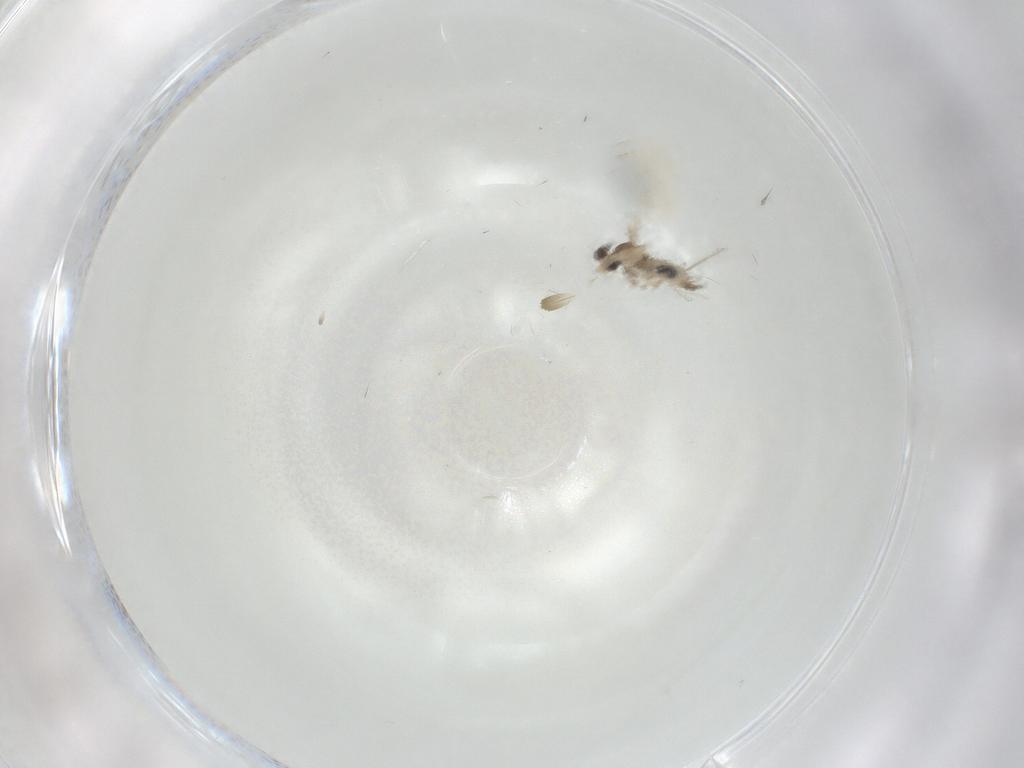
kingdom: Animalia
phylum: Arthropoda
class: Insecta
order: Diptera
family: Cecidomyiidae
